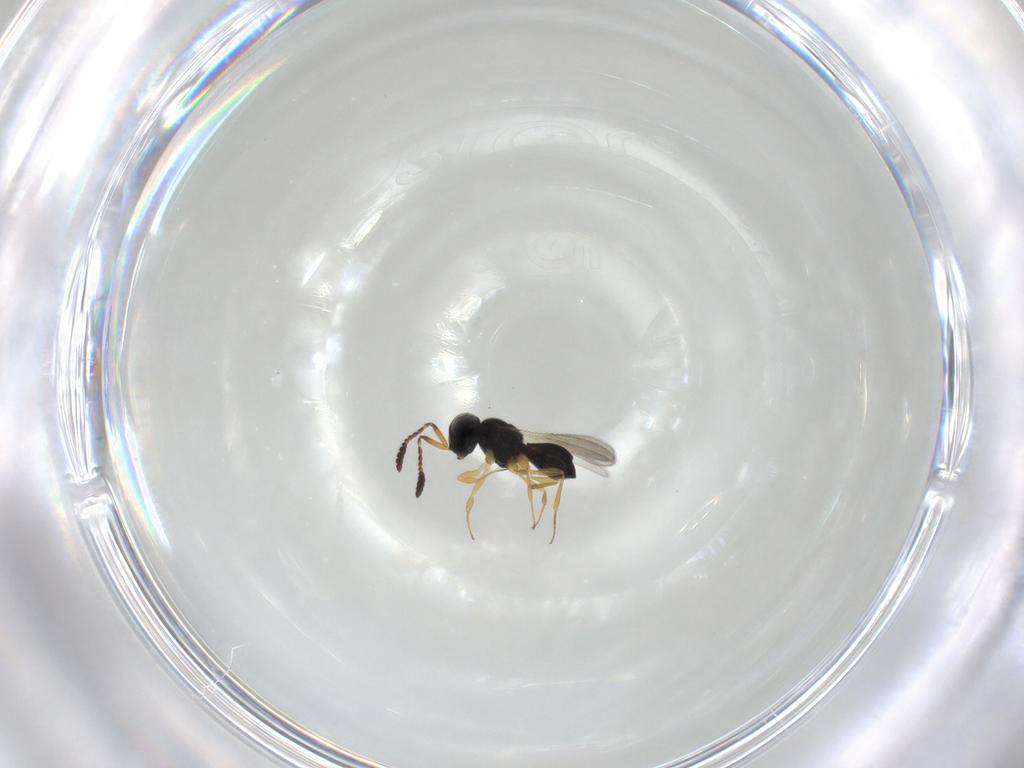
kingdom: Animalia
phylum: Arthropoda
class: Insecta
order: Hymenoptera
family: Scelionidae
